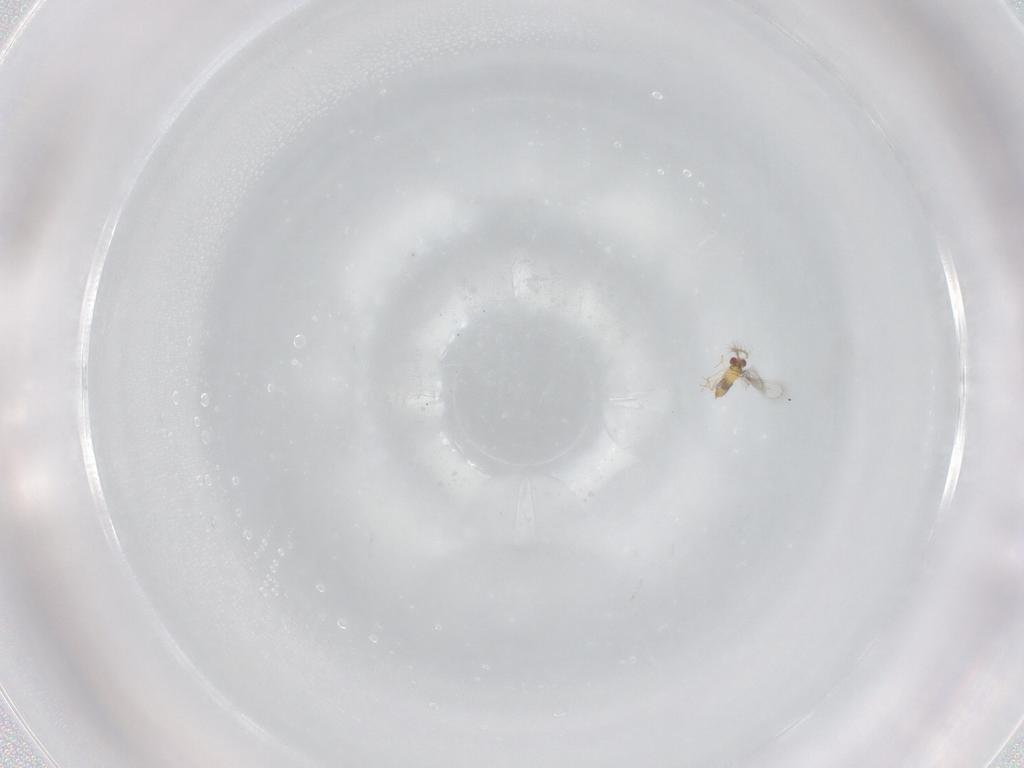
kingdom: Animalia
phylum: Arthropoda
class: Insecta
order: Hymenoptera
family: Trichogrammatidae
